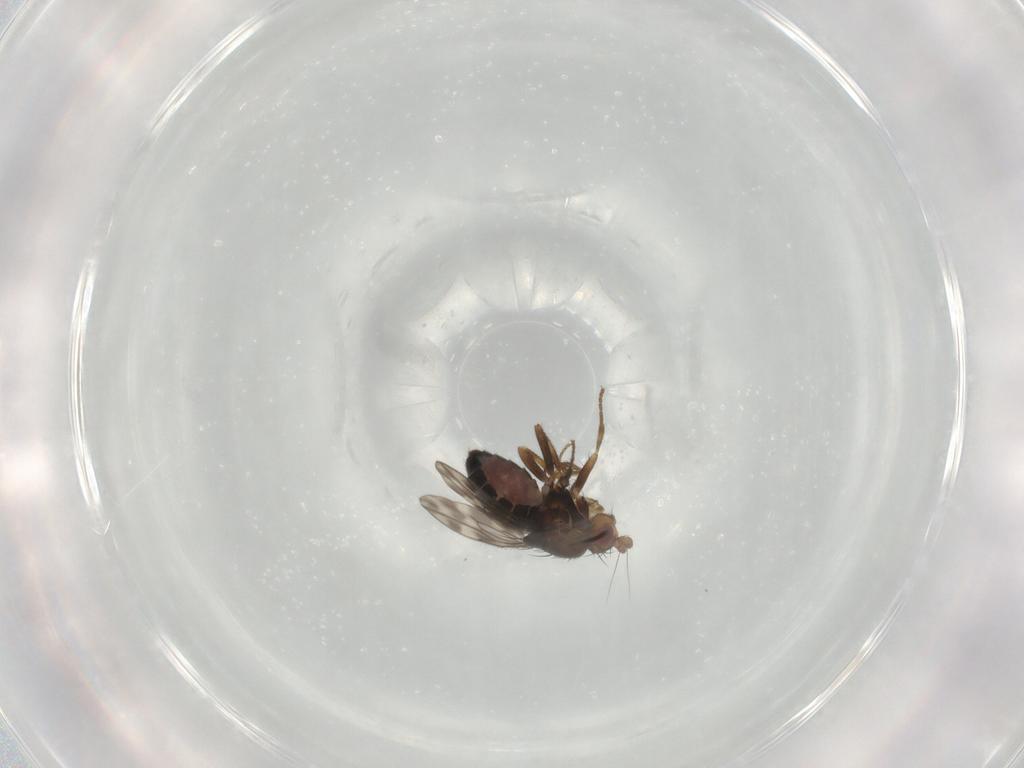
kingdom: Animalia
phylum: Arthropoda
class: Insecta
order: Diptera
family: Sphaeroceridae
